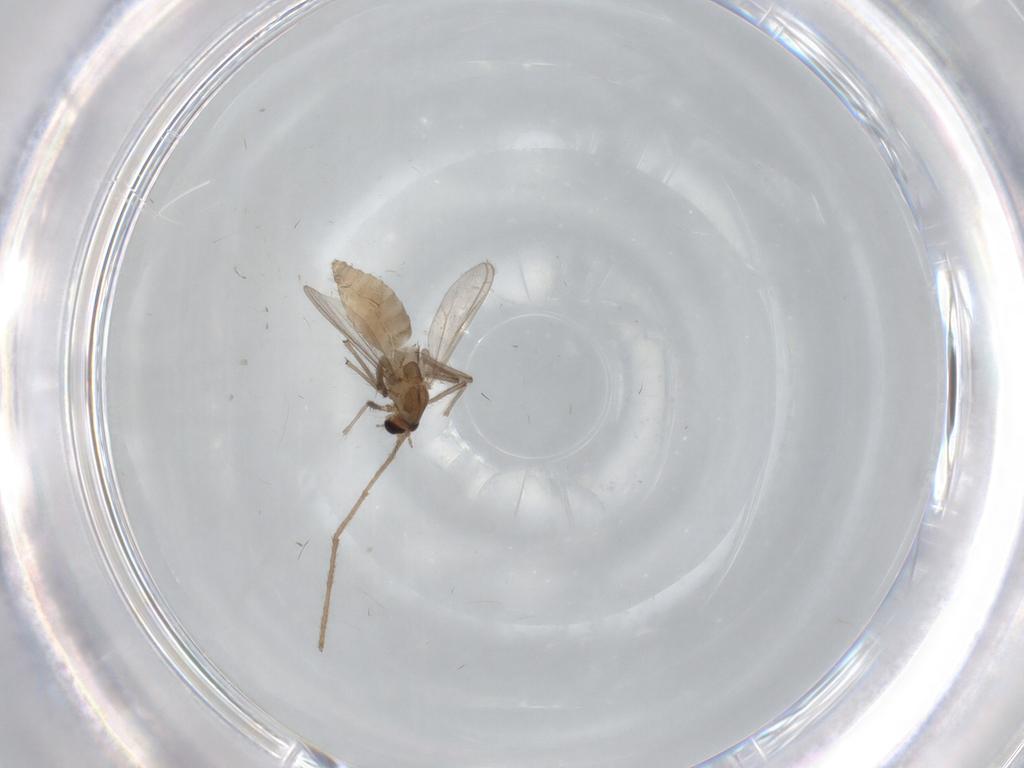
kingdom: Animalia
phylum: Arthropoda
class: Insecta
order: Diptera
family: Chironomidae
